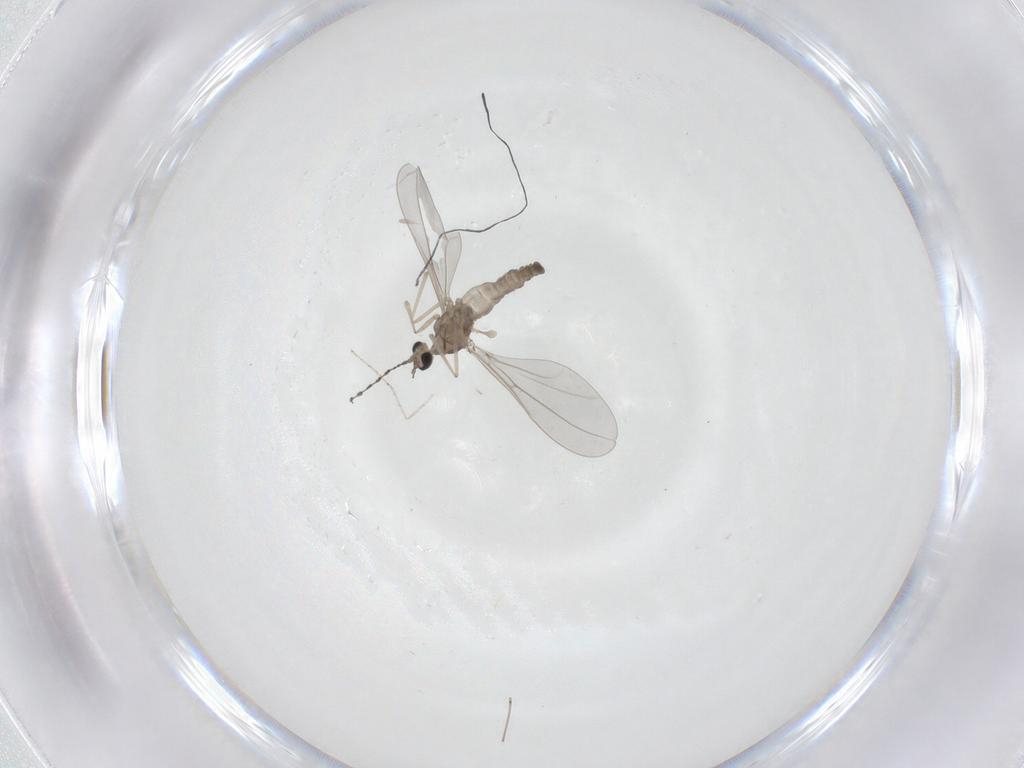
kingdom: Animalia
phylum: Arthropoda
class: Insecta
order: Diptera
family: Cecidomyiidae
